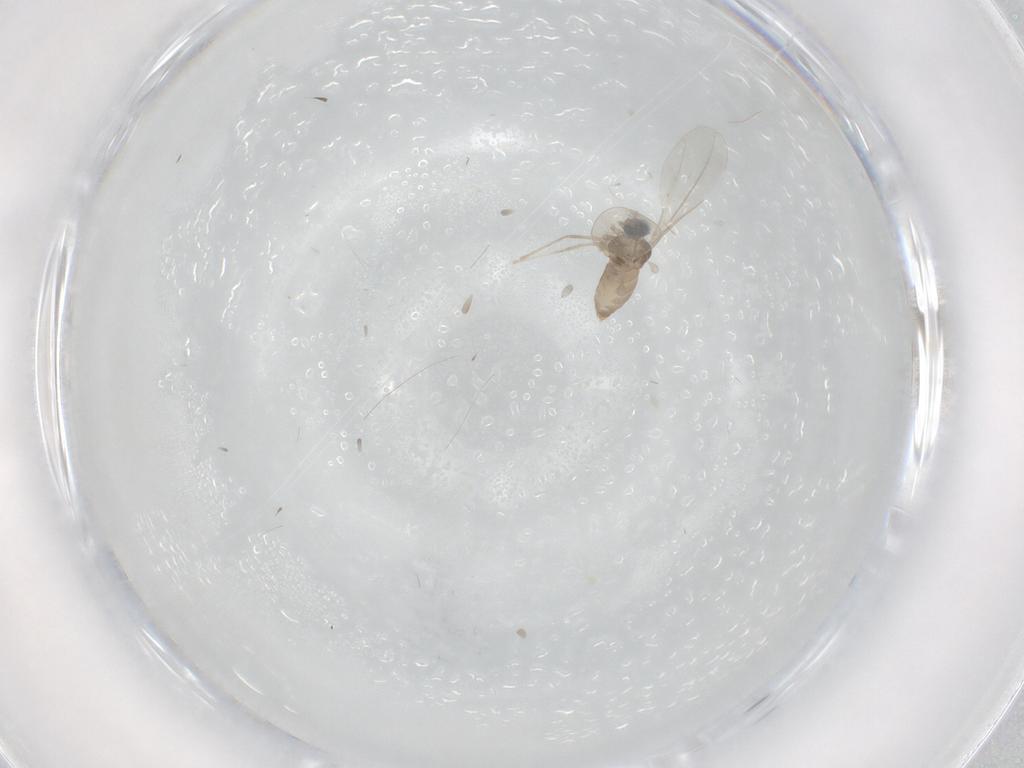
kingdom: Animalia
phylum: Arthropoda
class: Insecta
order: Diptera
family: Cecidomyiidae
